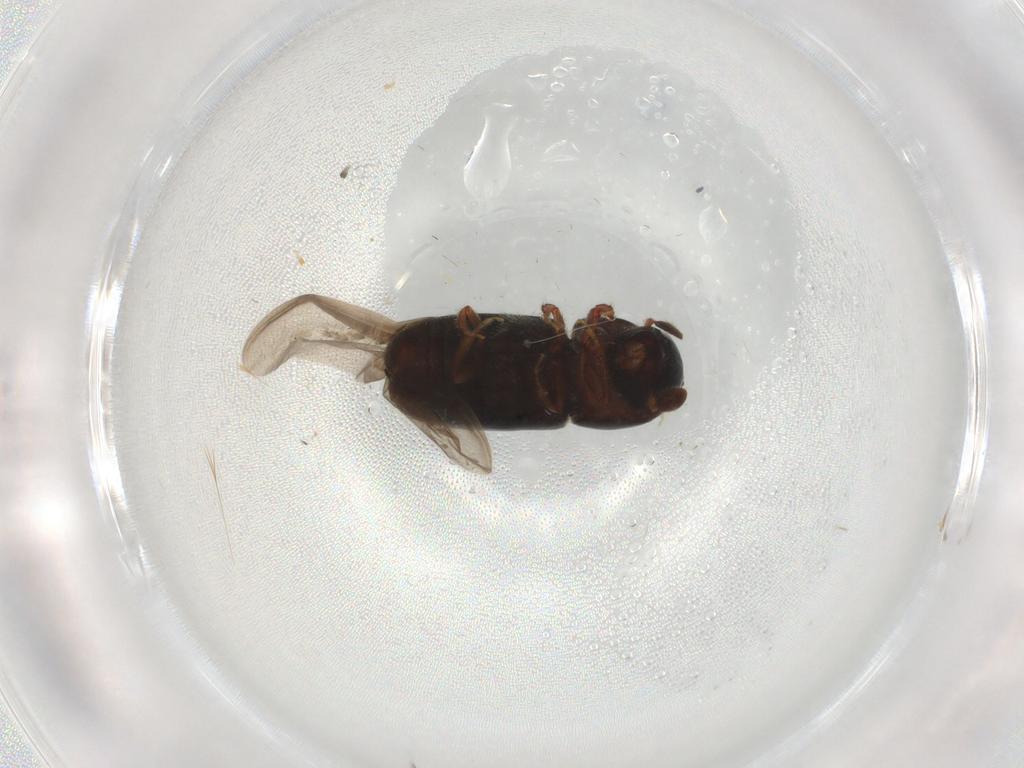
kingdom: Animalia
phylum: Arthropoda
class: Insecta
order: Coleoptera
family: Curculionidae
